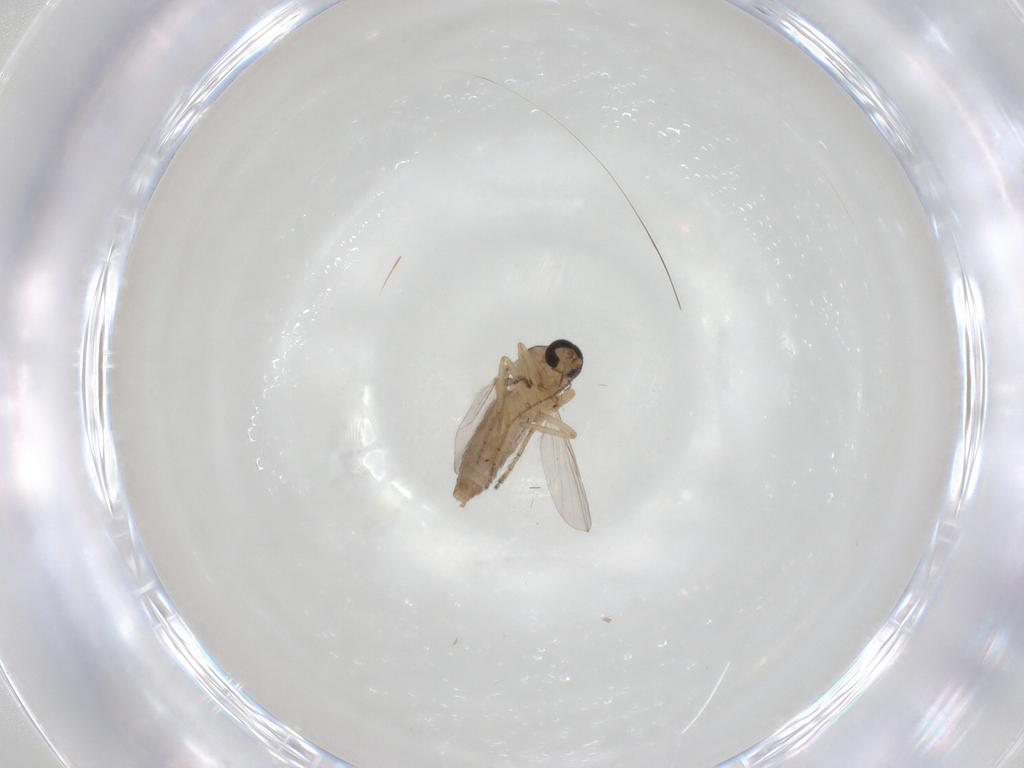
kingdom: Animalia
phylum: Arthropoda
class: Insecta
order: Diptera
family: Ceratopogonidae
